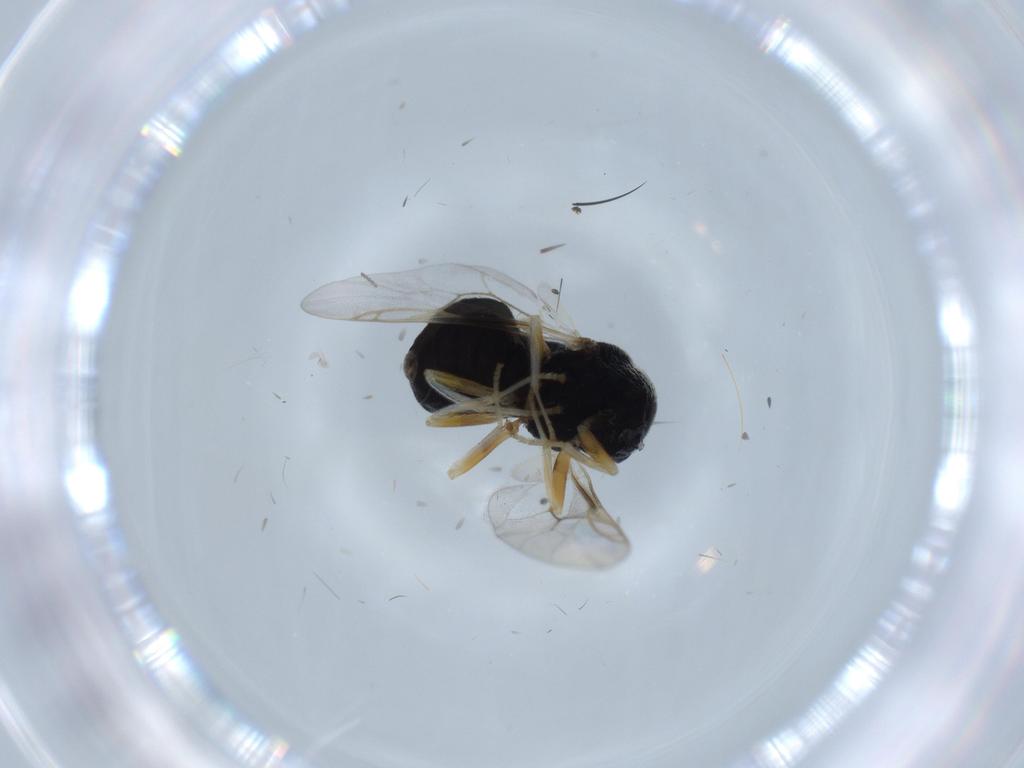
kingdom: Animalia
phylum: Arthropoda
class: Insecta
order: Diptera
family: Stratiomyidae
